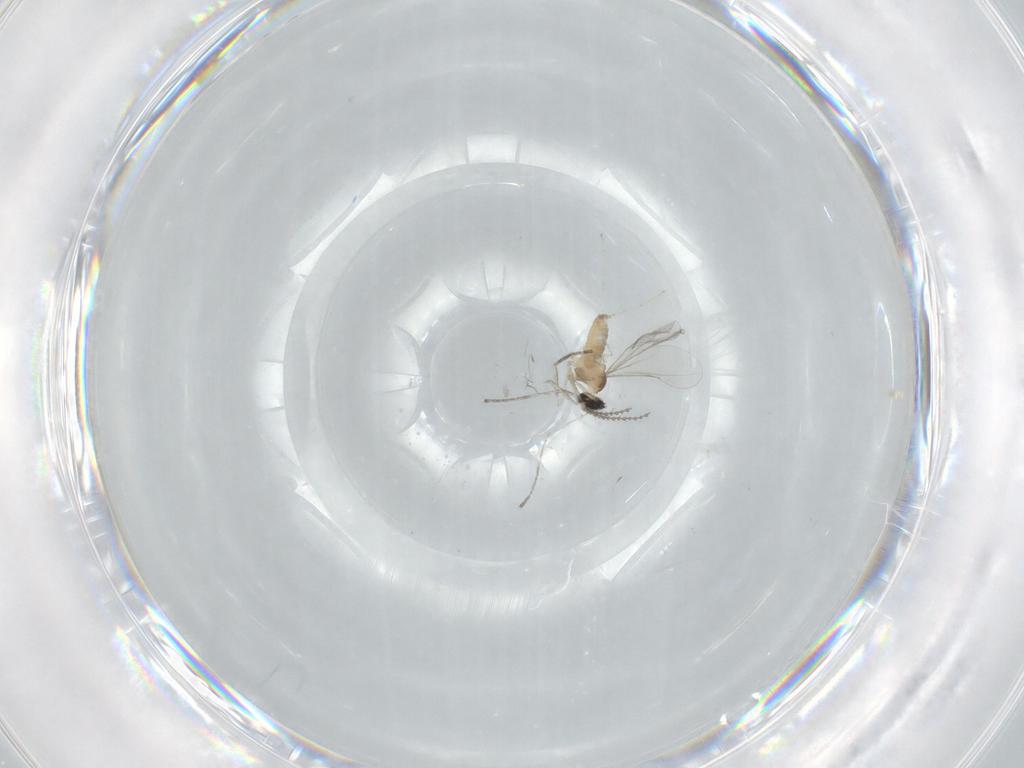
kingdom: Animalia
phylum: Arthropoda
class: Insecta
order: Diptera
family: Cecidomyiidae
